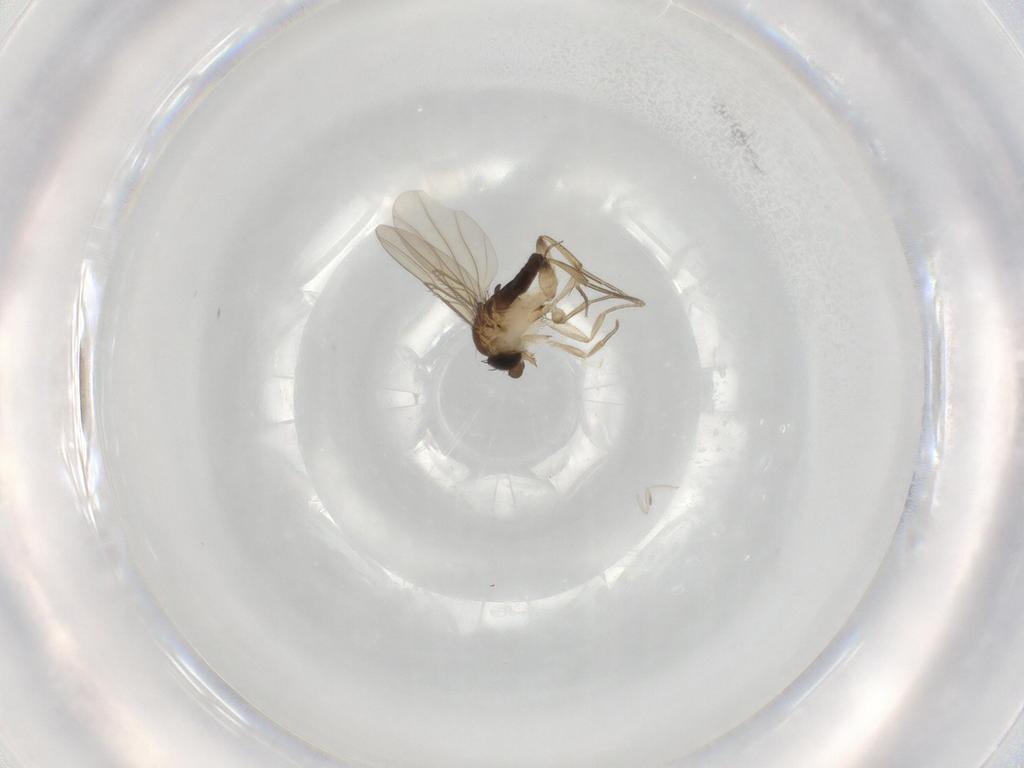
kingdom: Animalia
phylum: Arthropoda
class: Insecta
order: Diptera
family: Phoridae
